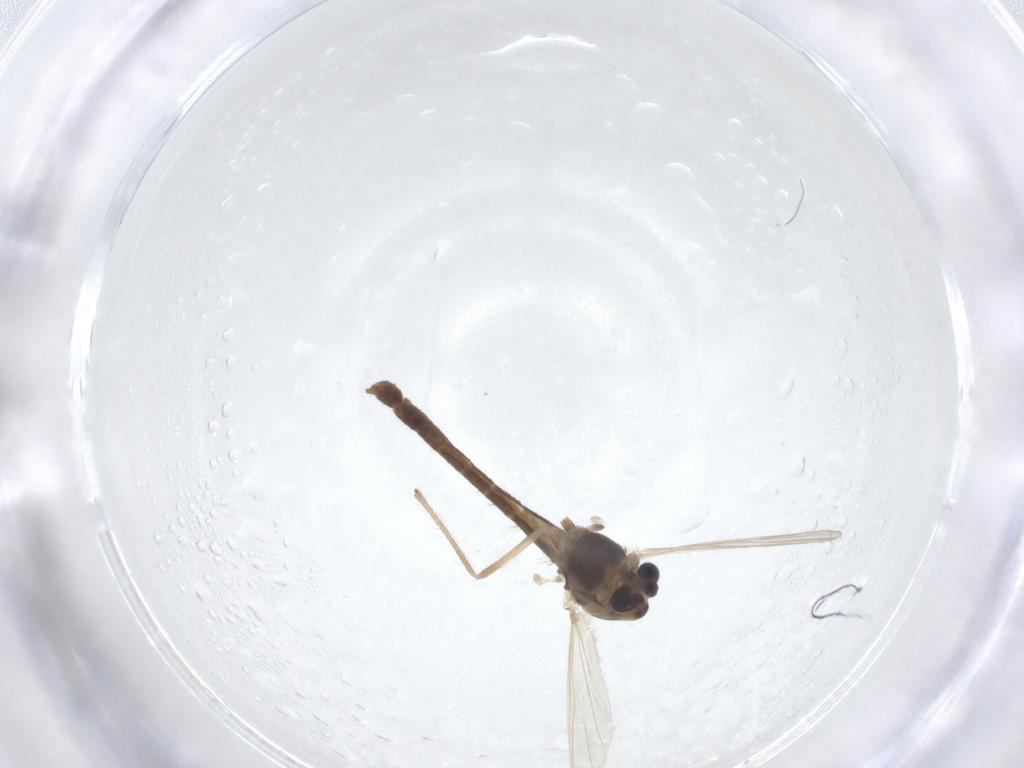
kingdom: Animalia
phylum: Arthropoda
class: Insecta
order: Diptera
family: Chironomidae
